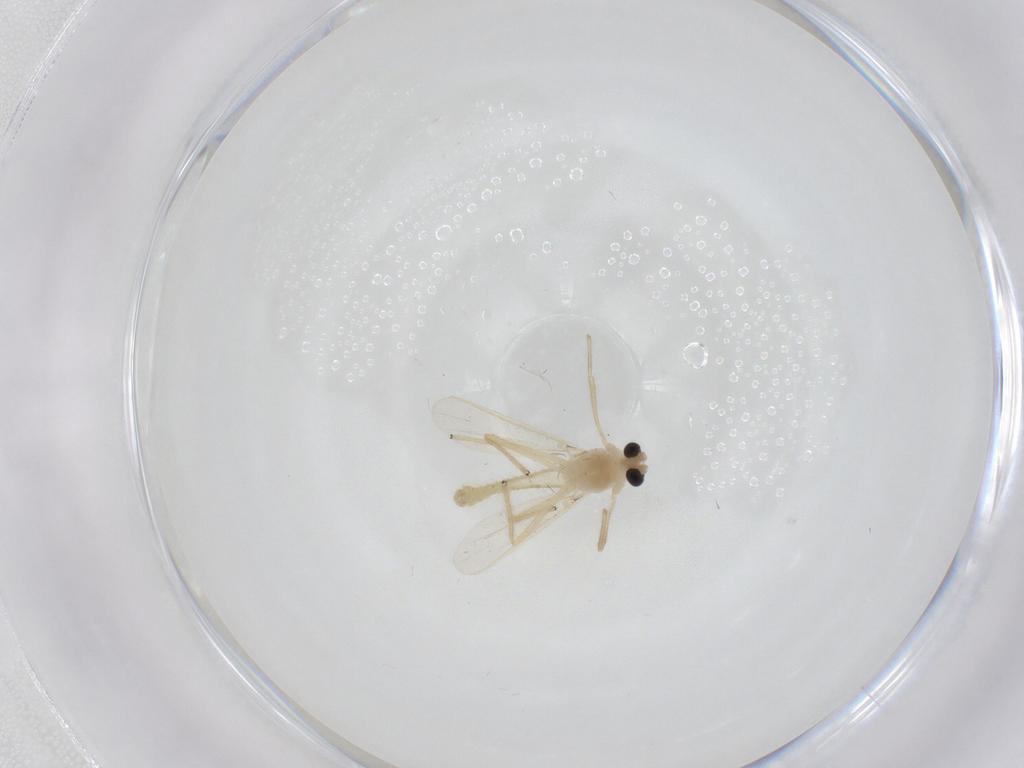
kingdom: Animalia
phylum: Arthropoda
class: Insecta
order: Diptera
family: Chironomidae
